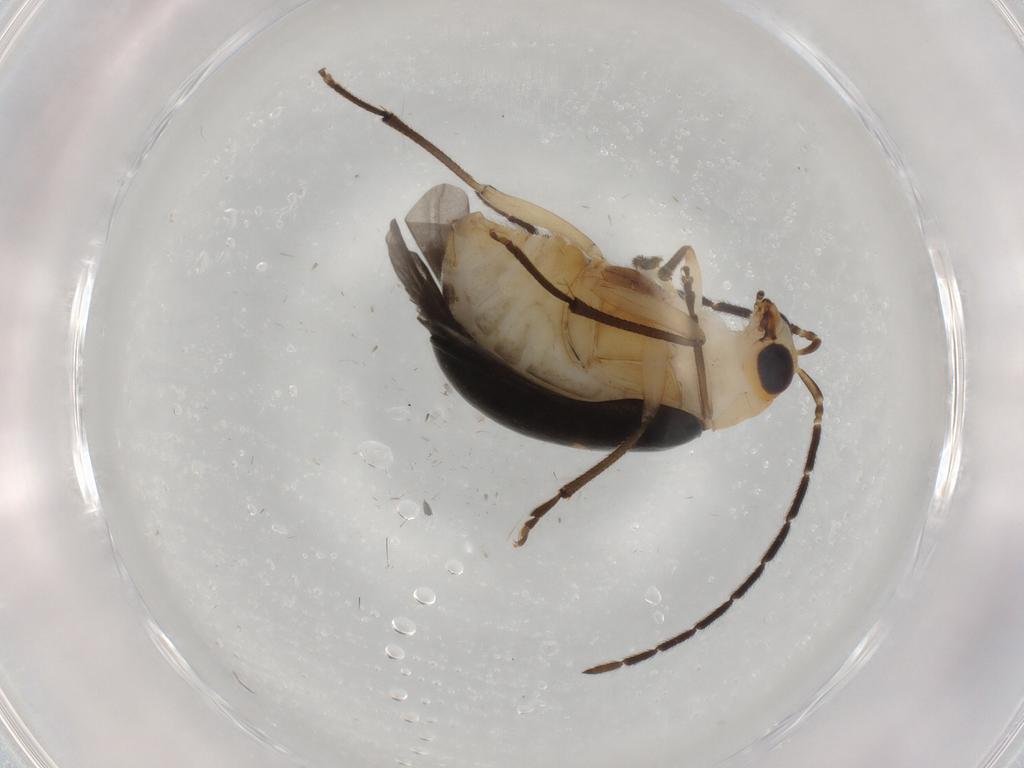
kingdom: Animalia
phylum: Arthropoda
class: Insecta
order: Coleoptera
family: Chrysomelidae
